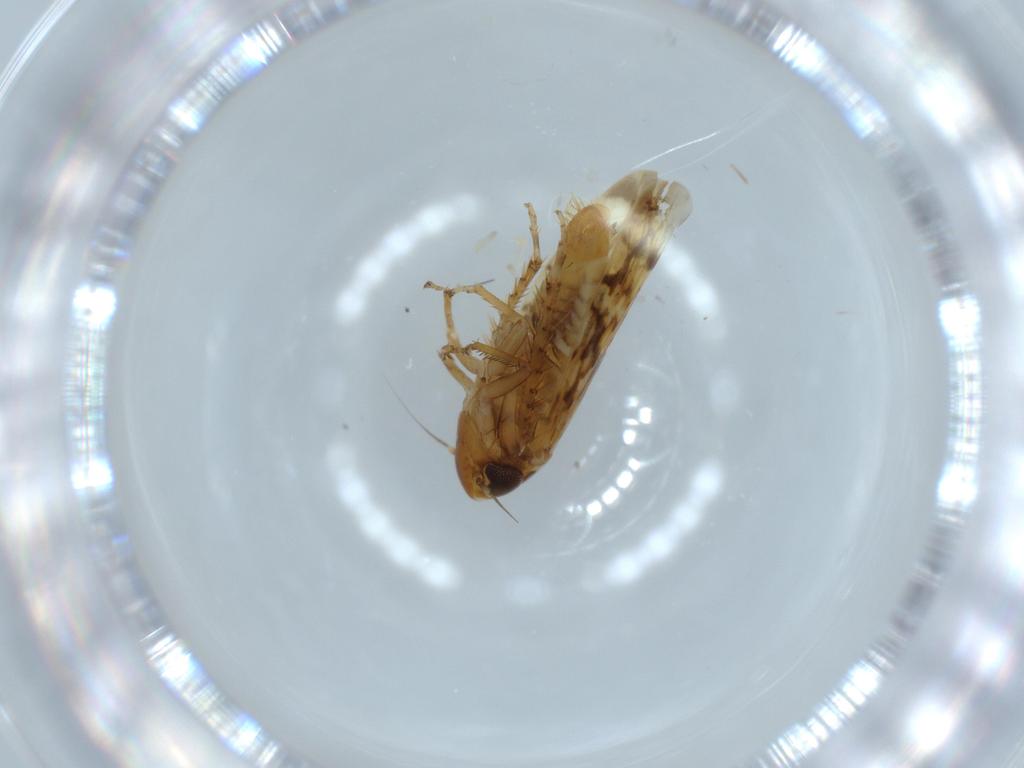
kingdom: Animalia
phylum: Arthropoda
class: Insecta
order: Hemiptera
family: Cicadellidae
